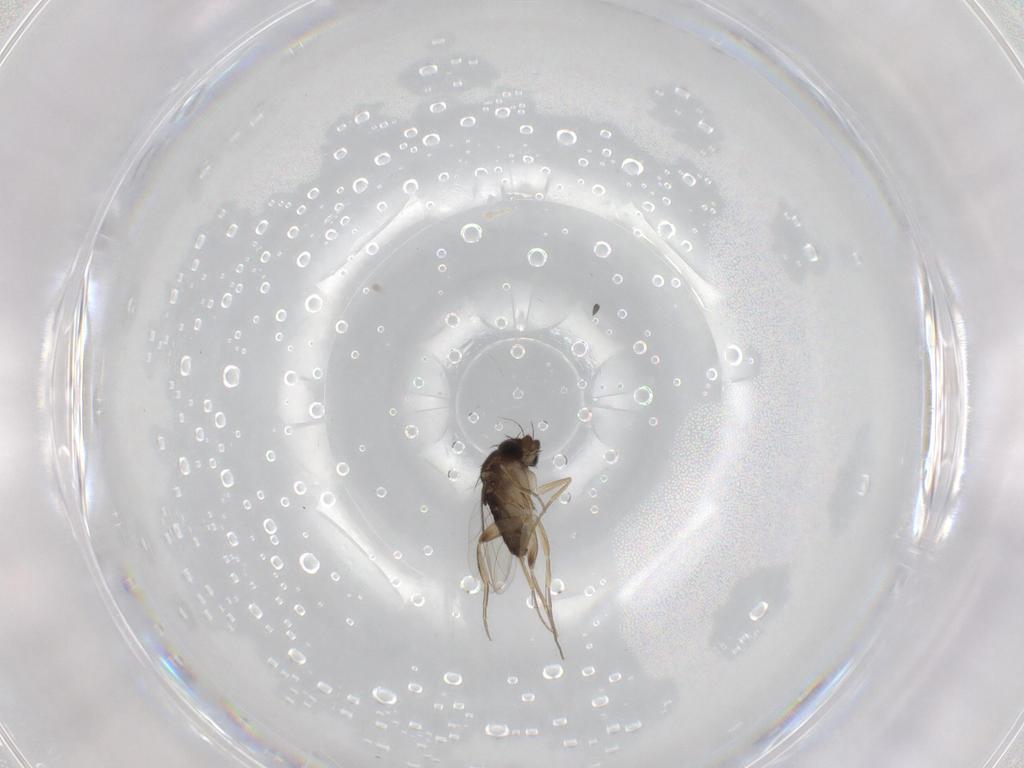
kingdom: Animalia
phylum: Arthropoda
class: Insecta
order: Diptera
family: Phoridae
